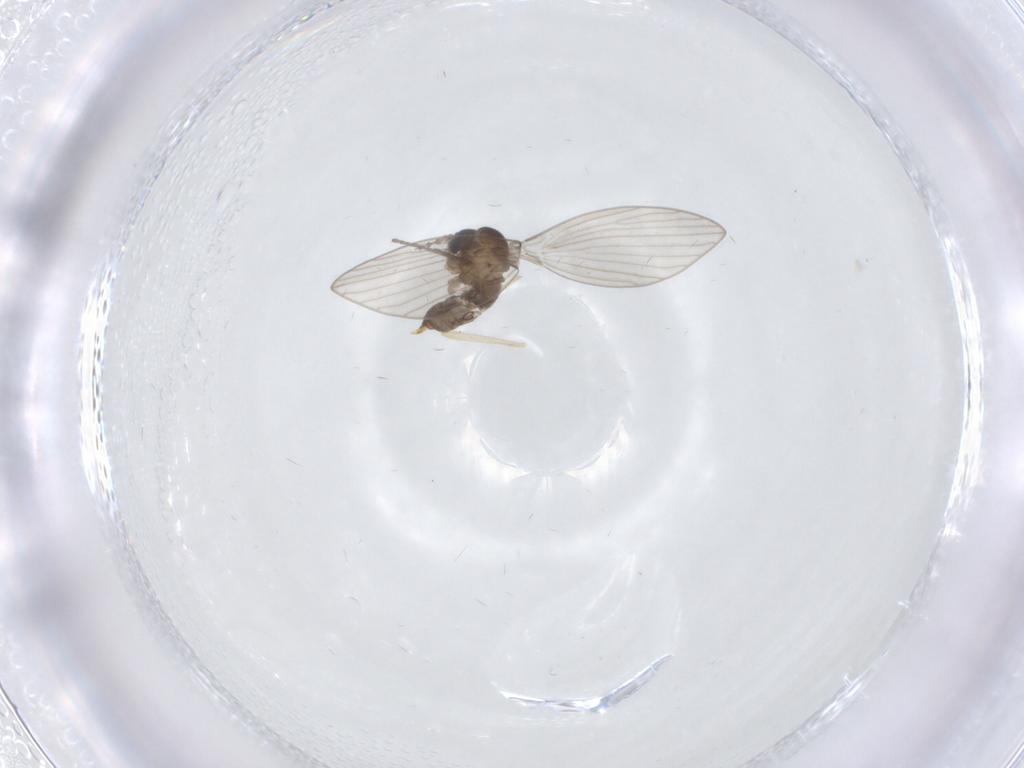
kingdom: Animalia
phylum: Arthropoda
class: Insecta
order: Diptera
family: Chironomidae
